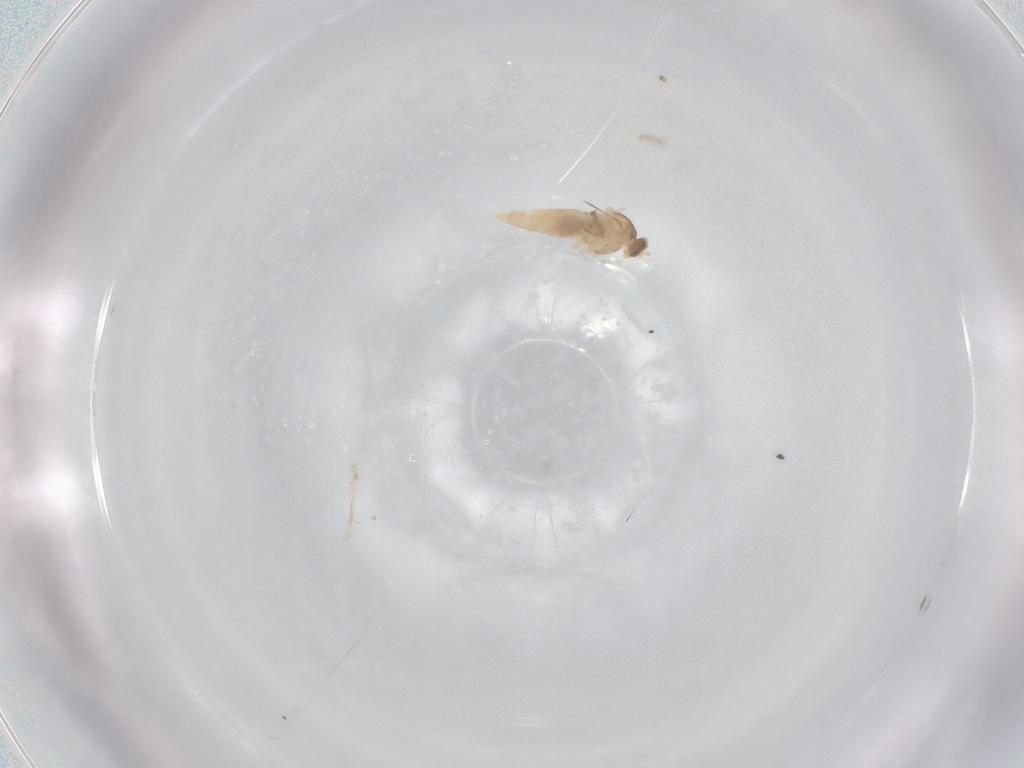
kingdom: Animalia
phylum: Arthropoda
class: Insecta
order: Diptera
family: Cecidomyiidae
